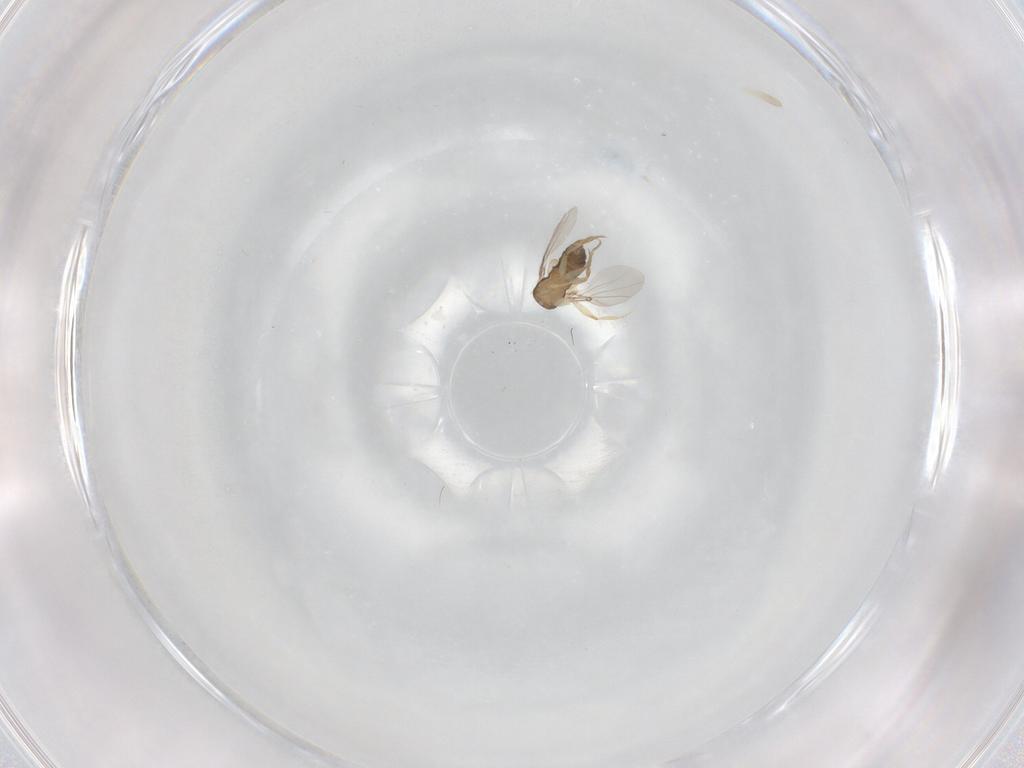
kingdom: Animalia
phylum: Arthropoda
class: Insecta
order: Diptera
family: Phoridae
